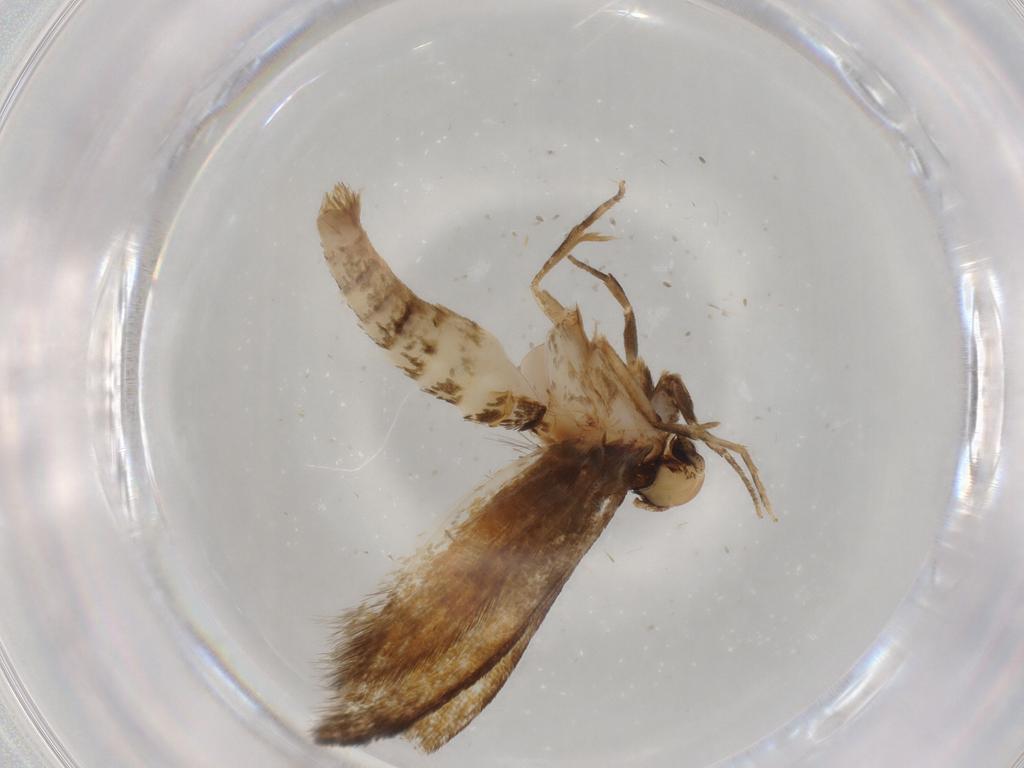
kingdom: Animalia
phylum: Arthropoda
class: Insecta
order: Lepidoptera
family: Tineidae
